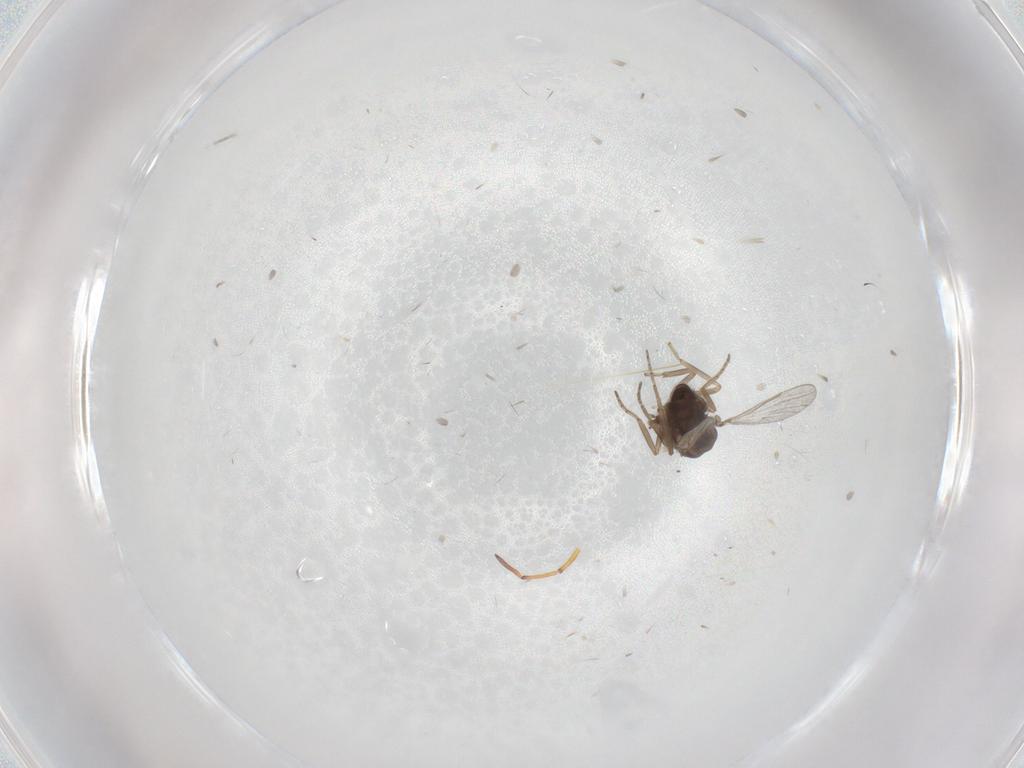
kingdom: Animalia
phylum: Arthropoda
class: Insecta
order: Diptera
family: Ceratopogonidae
